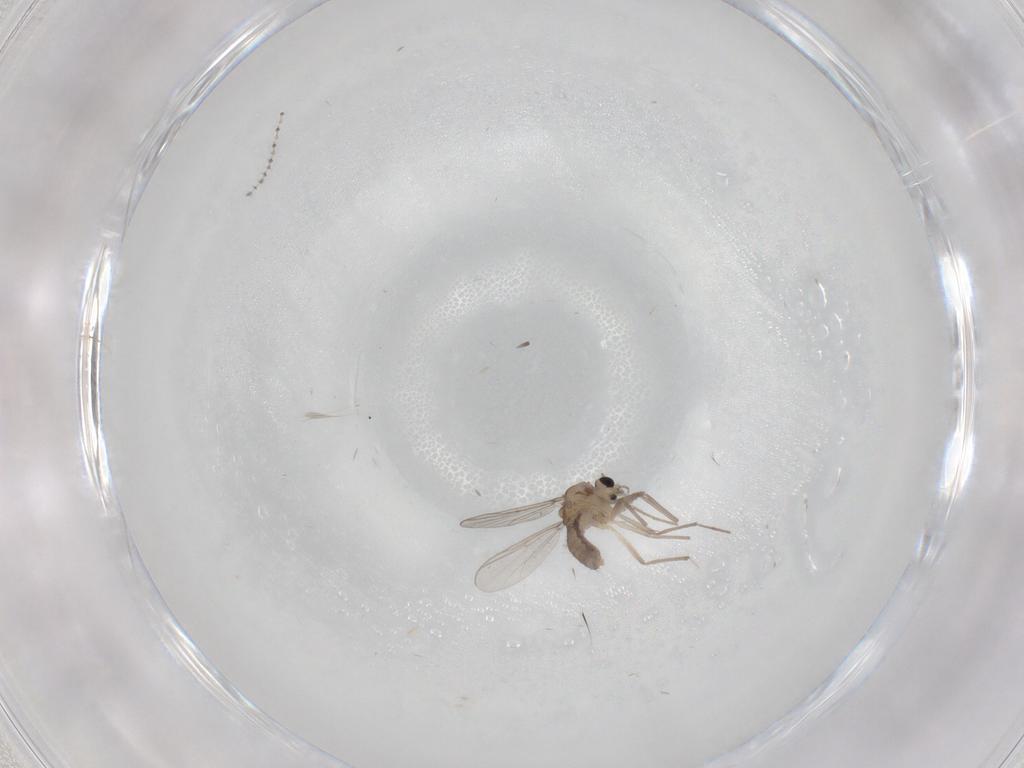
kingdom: Animalia
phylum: Arthropoda
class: Insecta
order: Diptera
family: Chironomidae
